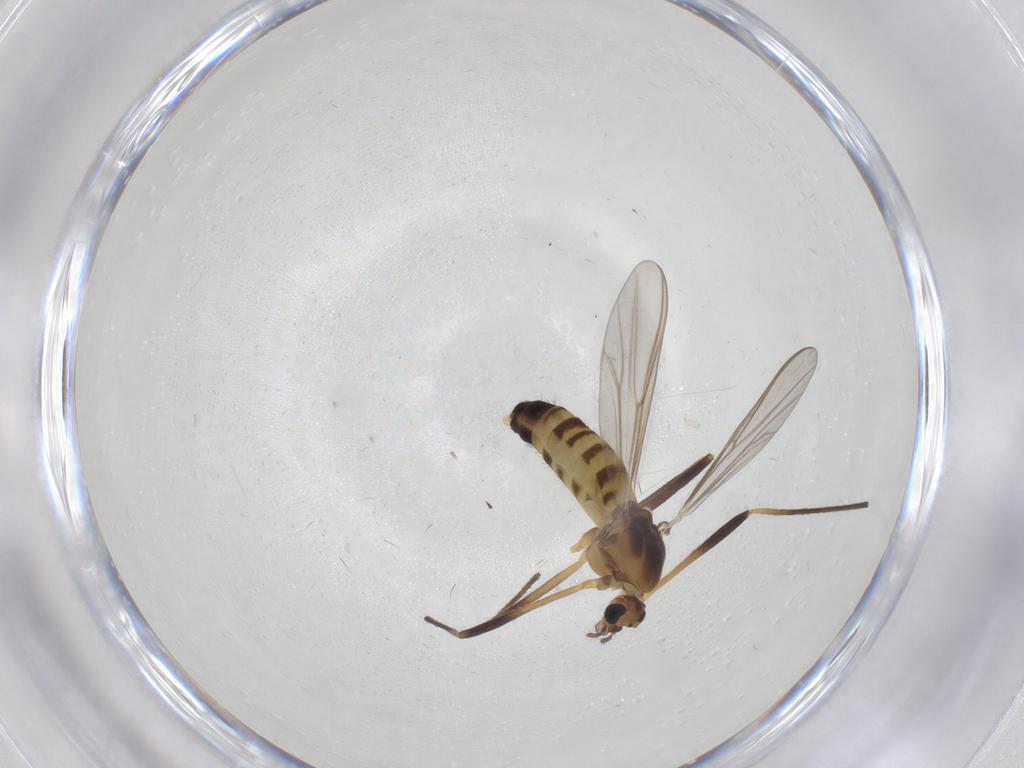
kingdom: Animalia
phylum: Arthropoda
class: Insecta
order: Diptera
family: Chironomidae
